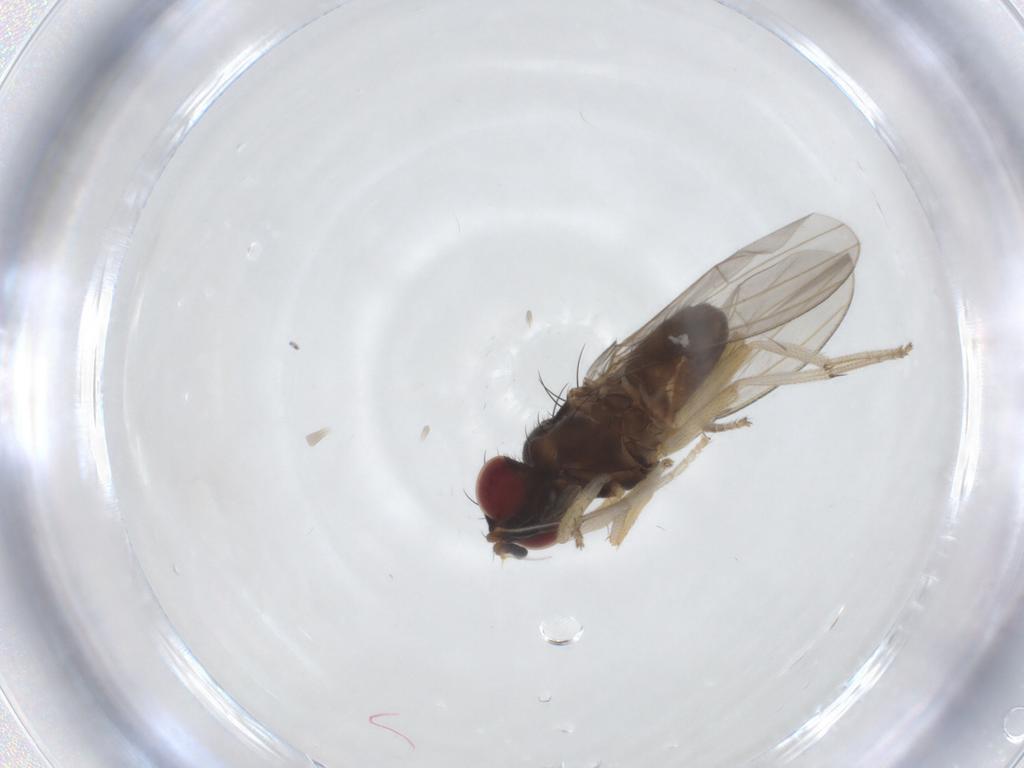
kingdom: Animalia
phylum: Arthropoda
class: Insecta
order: Diptera
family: Lauxaniidae
